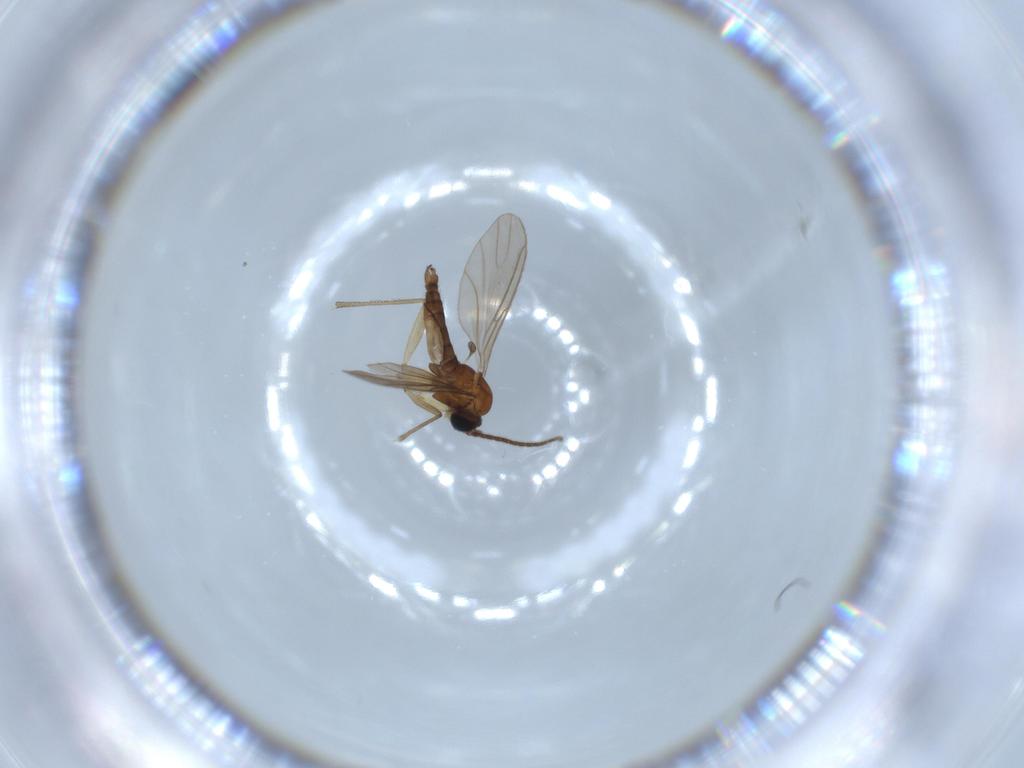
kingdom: Animalia
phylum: Arthropoda
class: Insecta
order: Diptera
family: Sciaridae
